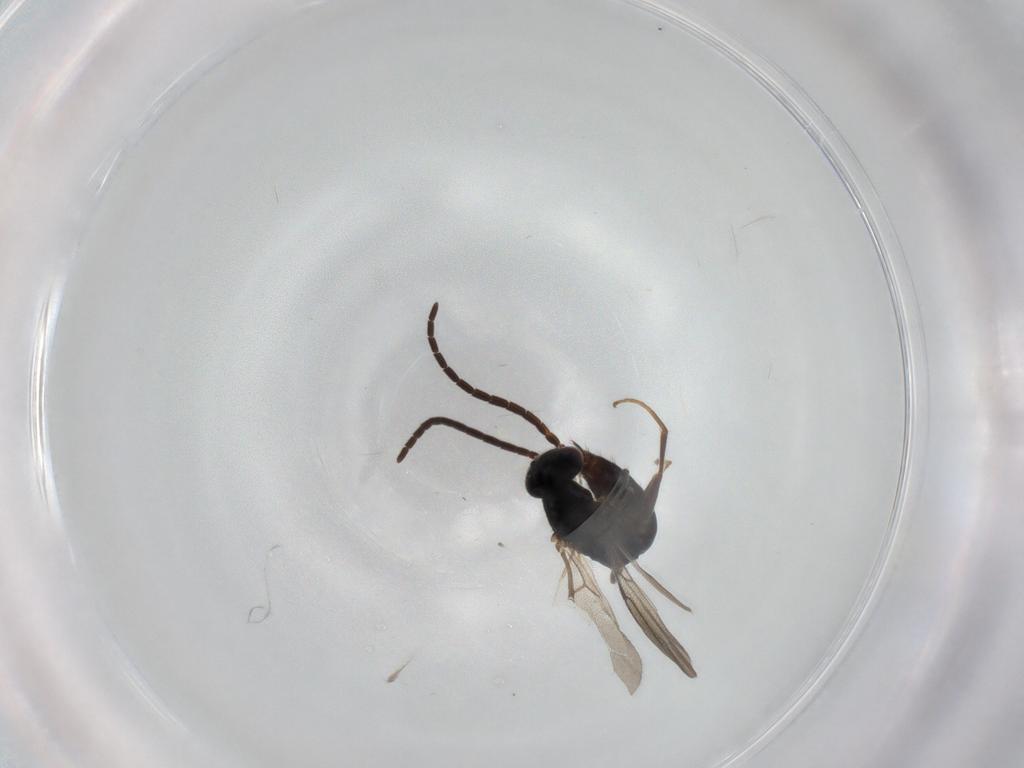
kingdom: Animalia
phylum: Arthropoda
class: Insecta
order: Hymenoptera
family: Bethylidae
